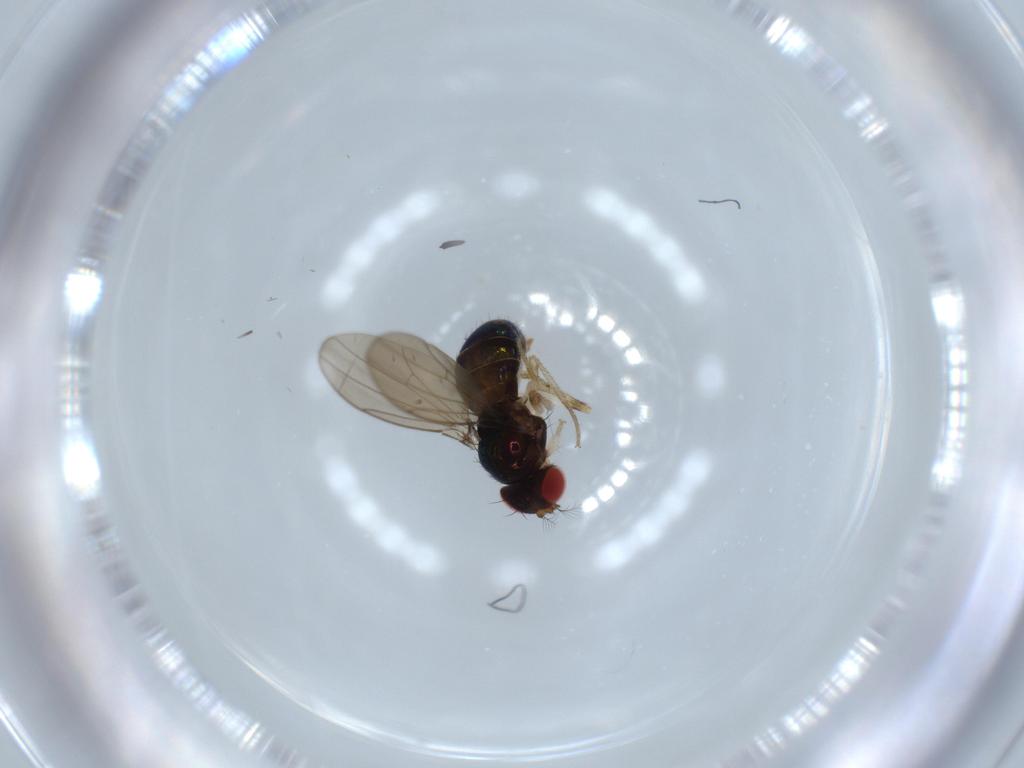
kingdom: Animalia
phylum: Arthropoda
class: Insecta
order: Diptera
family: Drosophilidae
